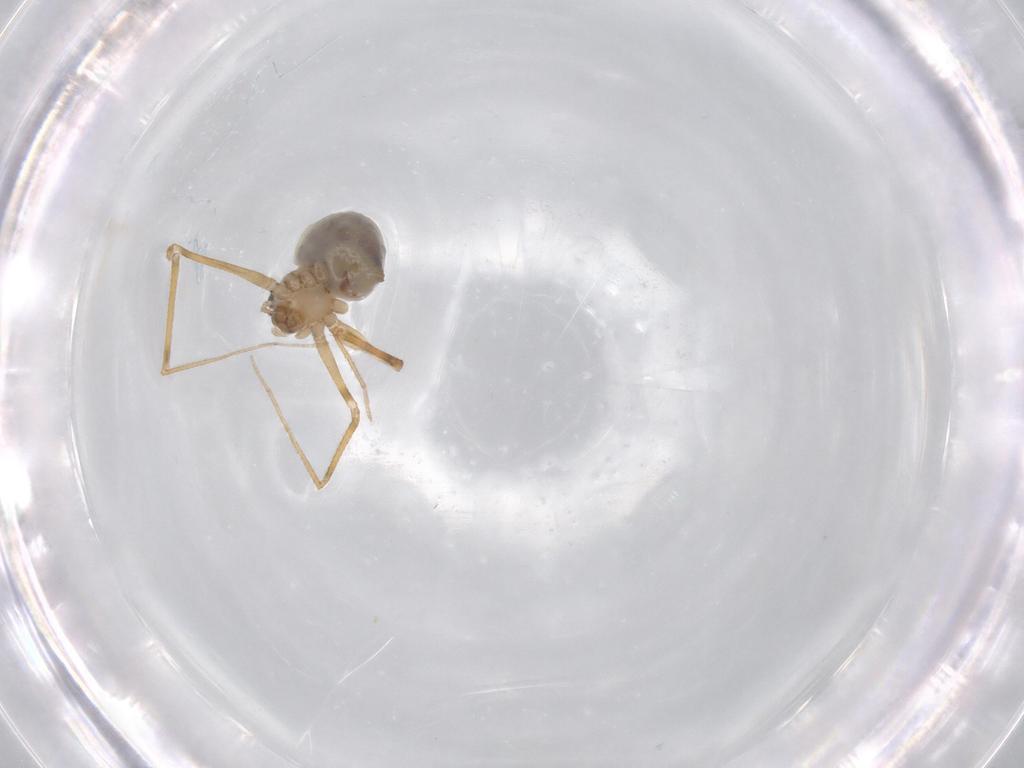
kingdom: Animalia
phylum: Arthropoda
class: Arachnida
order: Araneae
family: Pholcidae
